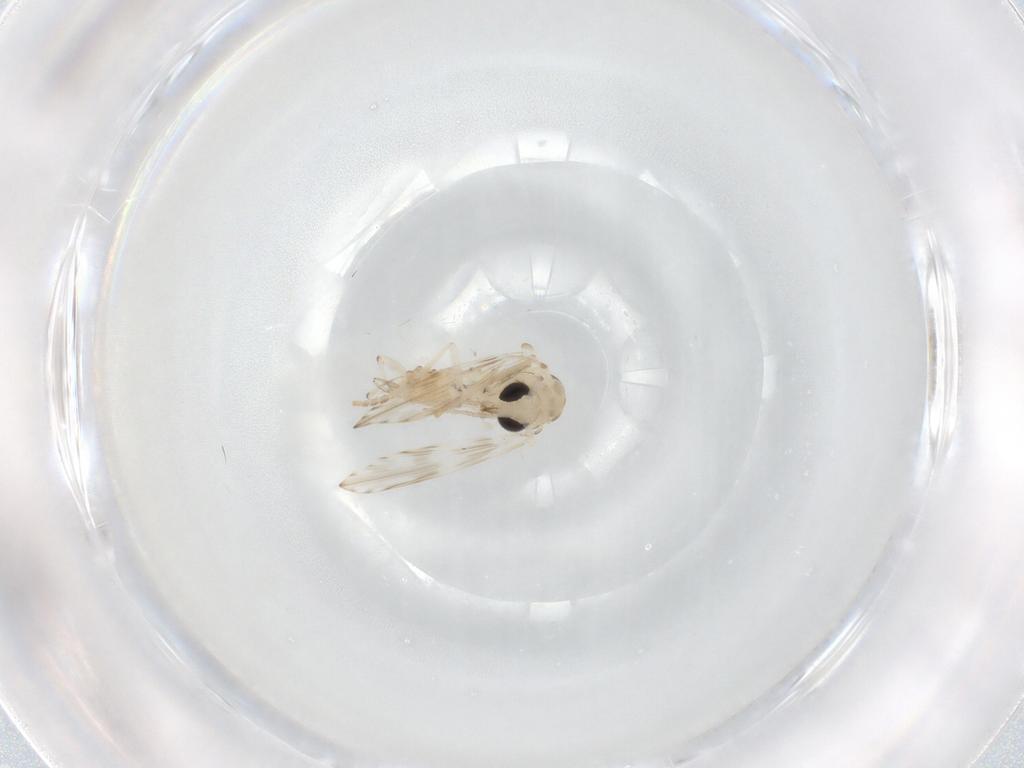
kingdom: Animalia
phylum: Arthropoda
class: Insecta
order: Diptera
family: Psychodidae
